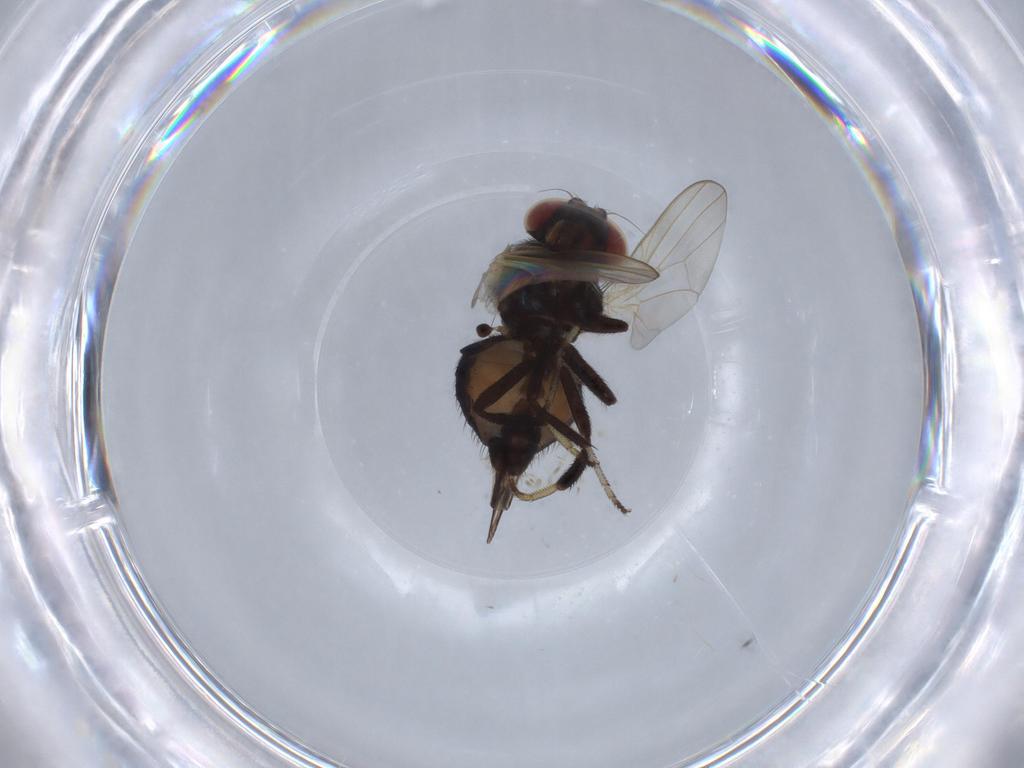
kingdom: Animalia
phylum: Arthropoda
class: Insecta
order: Diptera
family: Lonchaeidae
